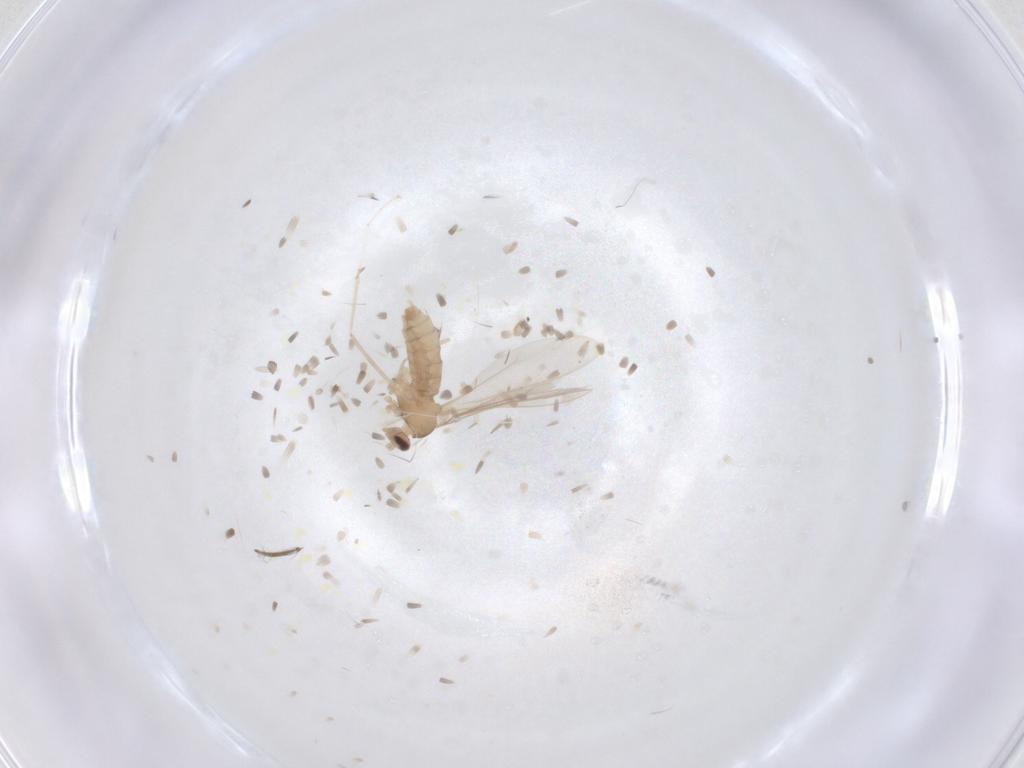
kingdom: Animalia
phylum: Arthropoda
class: Insecta
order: Diptera
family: Cecidomyiidae
